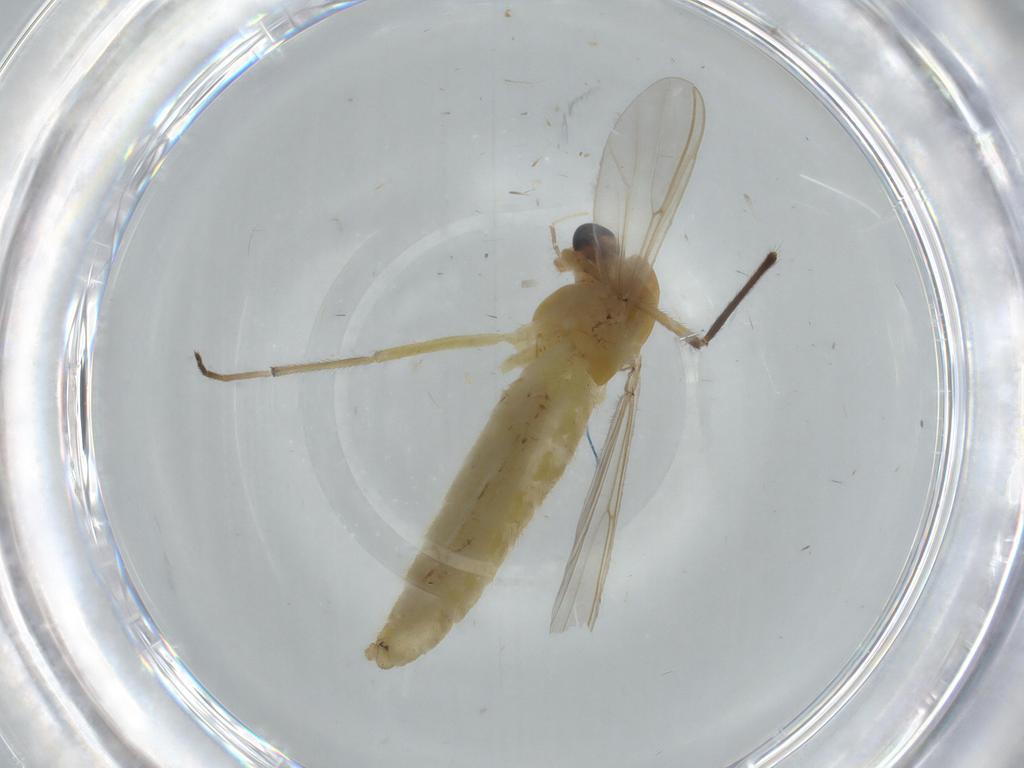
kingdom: Animalia
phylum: Arthropoda
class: Insecta
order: Diptera
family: Chironomidae
